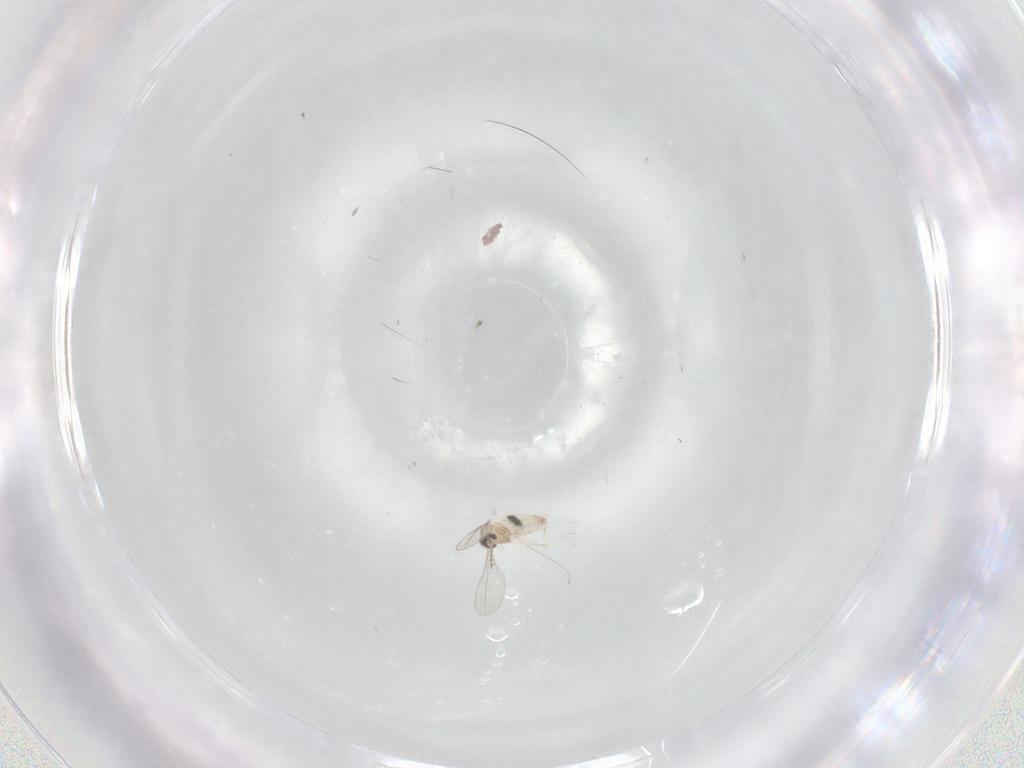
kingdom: Animalia
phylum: Arthropoda
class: Insecta
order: Diptera
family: Cecidomyiidae
